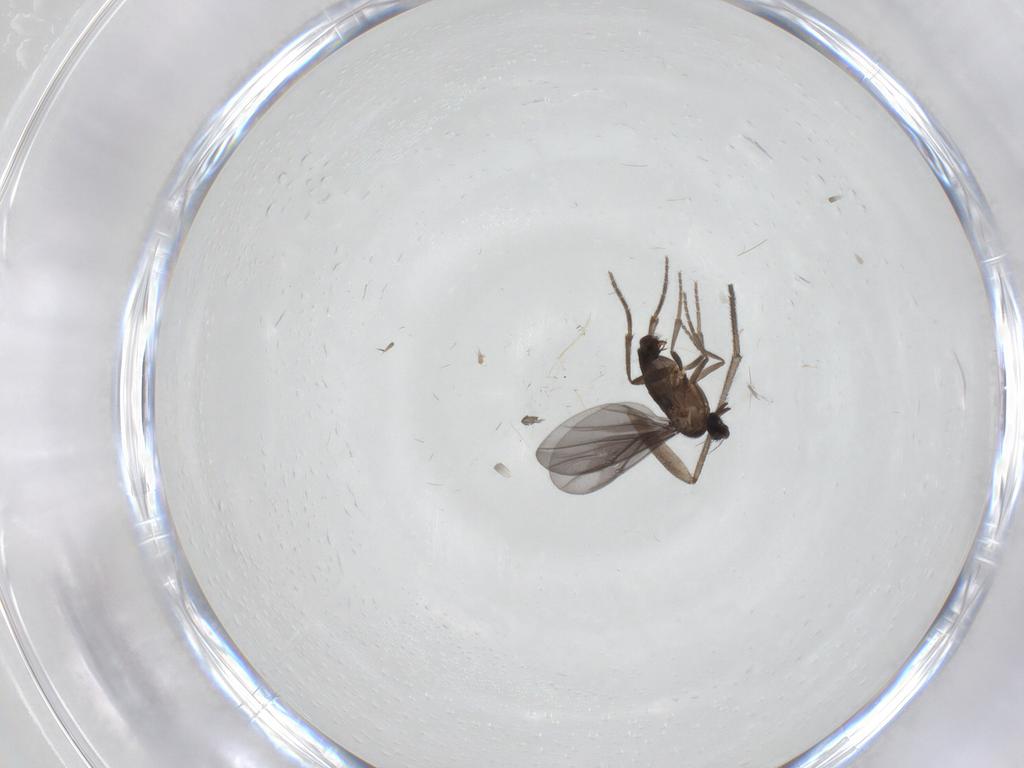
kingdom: Animalia
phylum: Arthropoda
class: Insecta
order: Diptera
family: Phoridae
